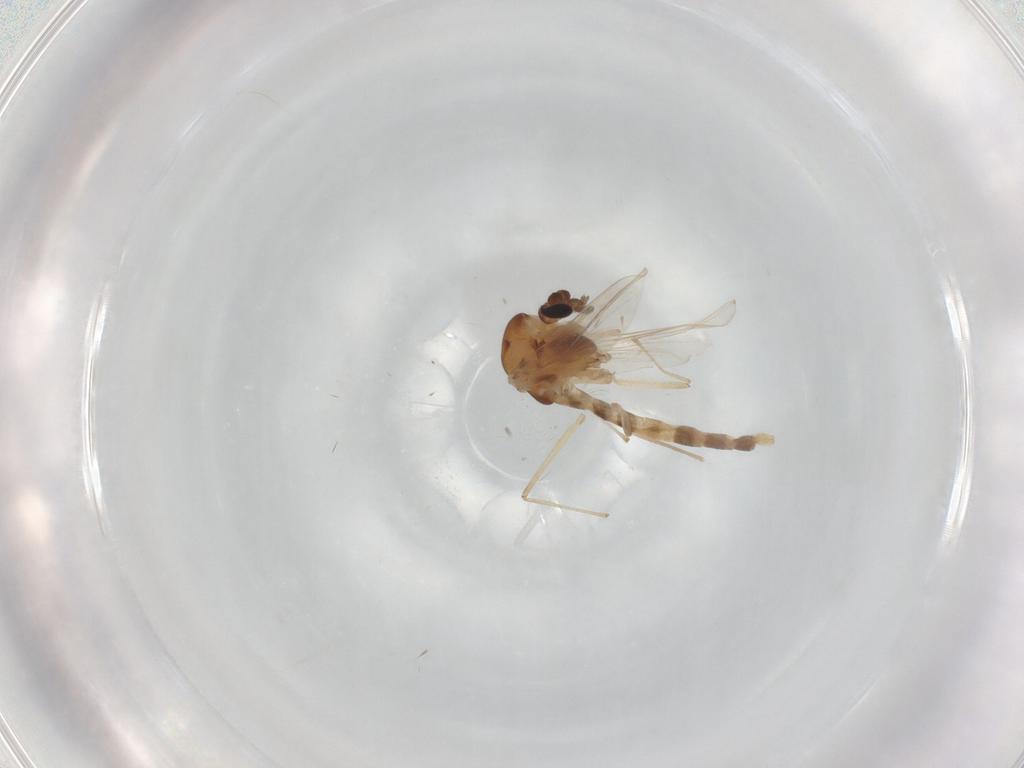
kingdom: Animalia
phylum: Arthropoda
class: Insecta
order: Diptera
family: Chironomidae
